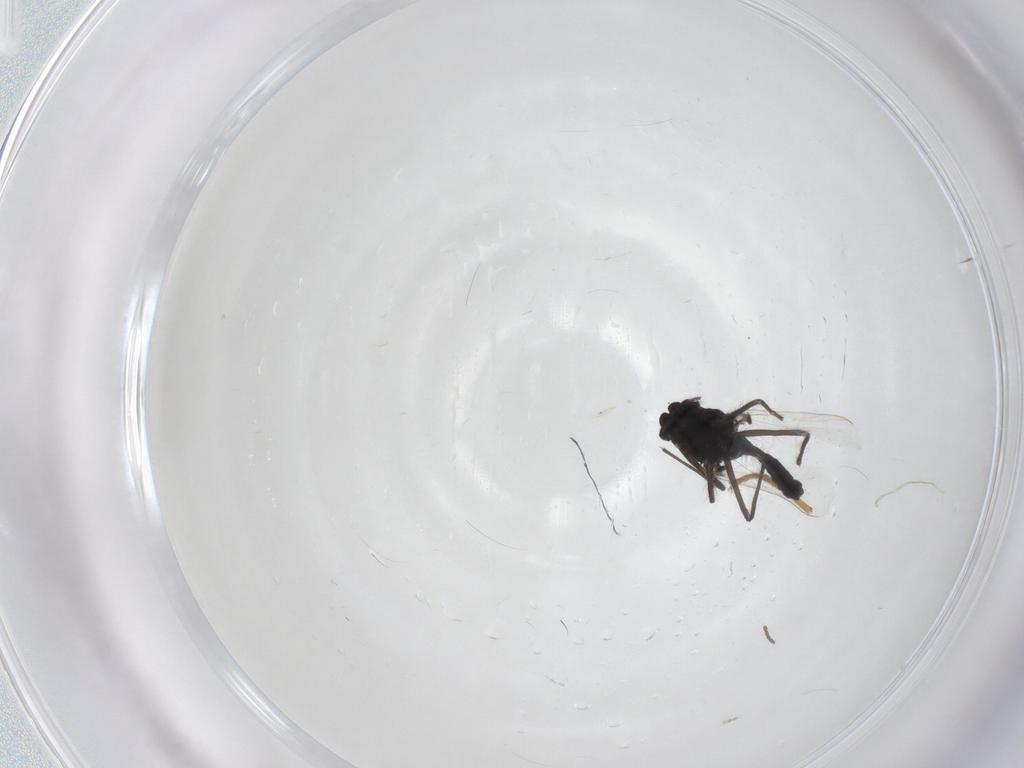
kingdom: Animalia
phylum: Arthropoda
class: Insecta
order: Diptera
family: Chironomidae
